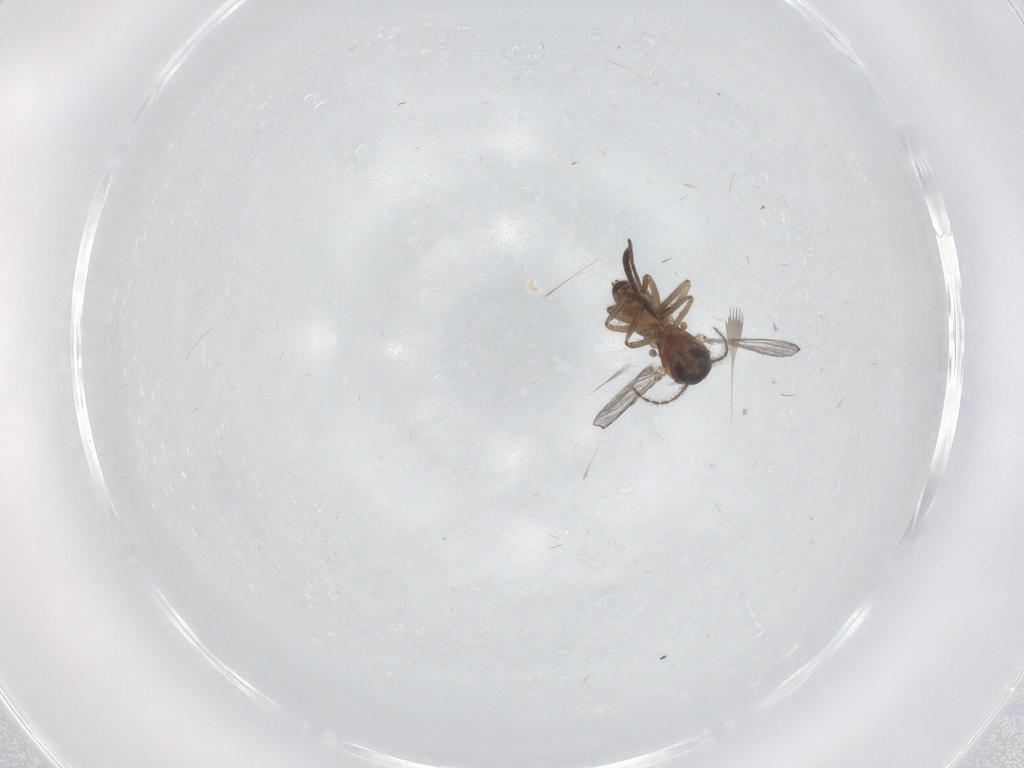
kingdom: Animalia
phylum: Arthropoda
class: Insecta
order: Diptera
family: Ceratopogonidae
